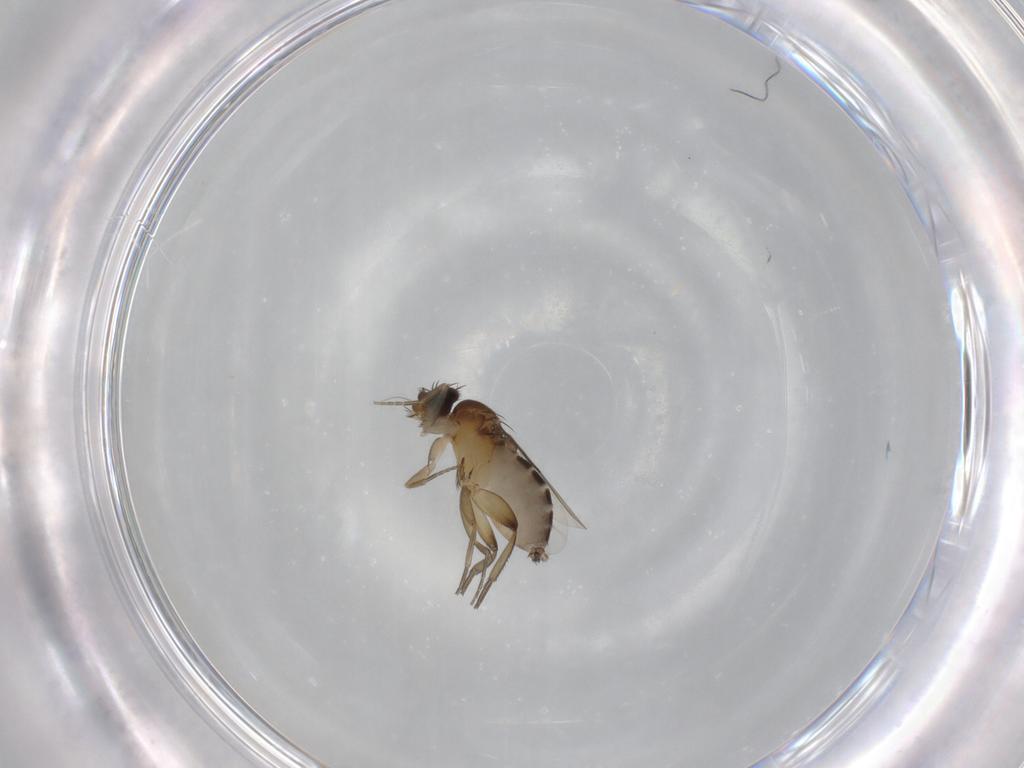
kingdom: Animalia
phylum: Arthropoda
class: Insecta
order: Diptera
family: Phoridae
